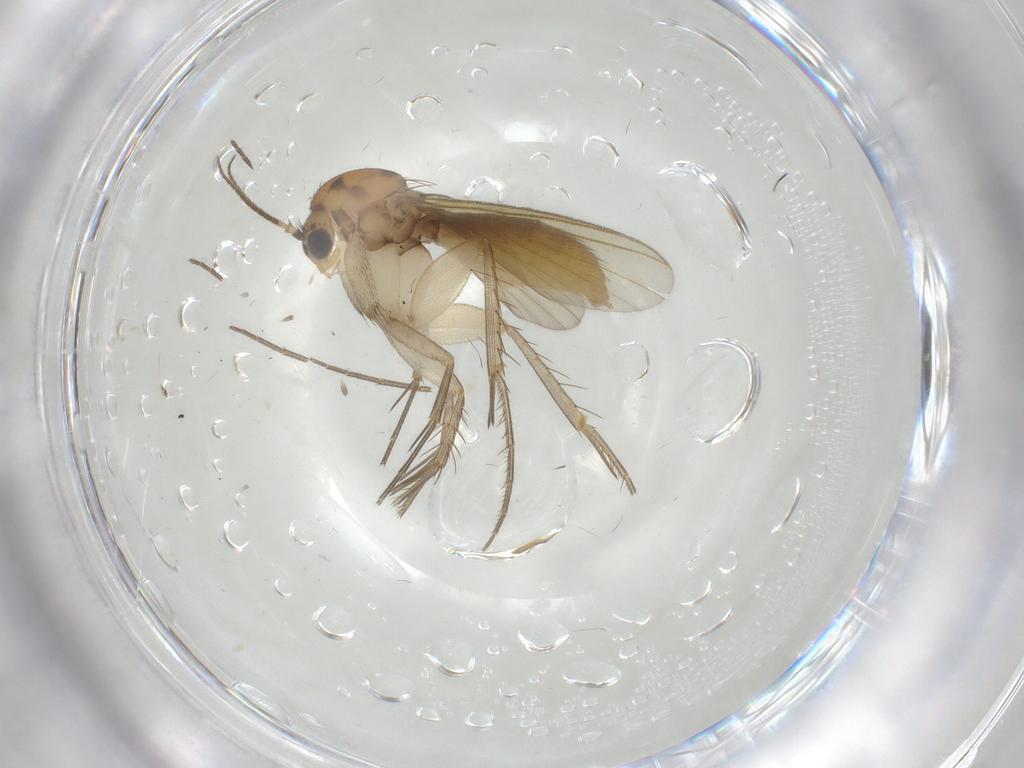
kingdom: Animalia
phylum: Arthropoda
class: Insecta
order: Diptera
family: Mycetophilidae
